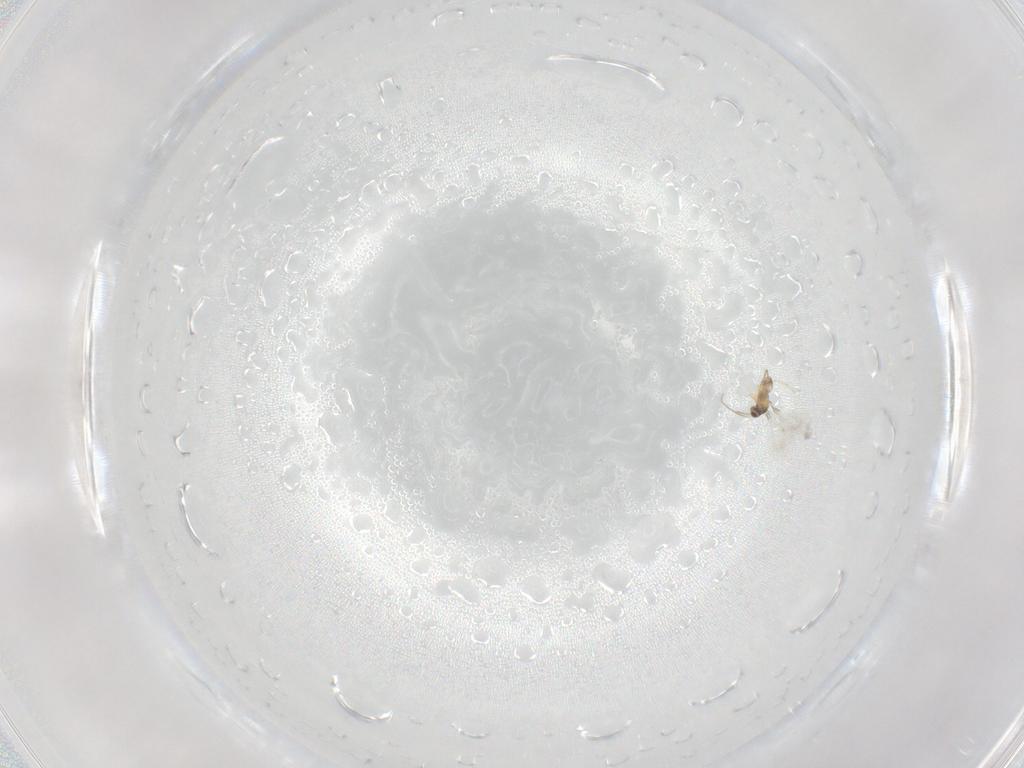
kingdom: Animalia
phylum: Arthropoda
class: Insecta
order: Hymenoptera
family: Mymaridae
